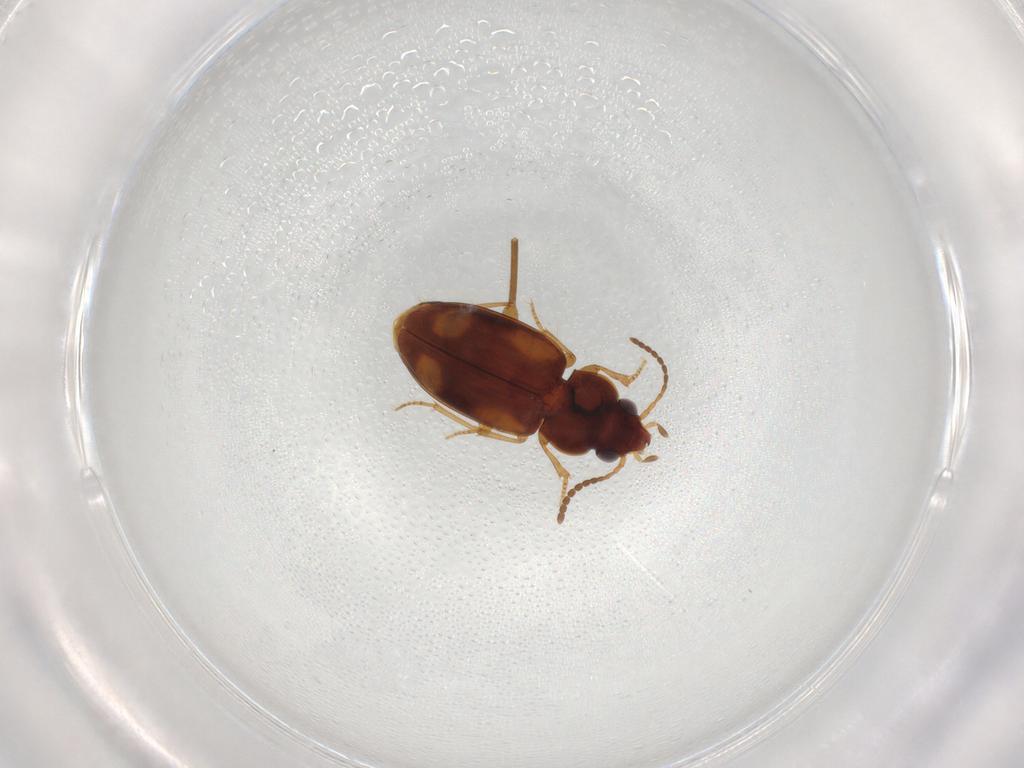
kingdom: Animalia
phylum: Arthropoda
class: Insecta
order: Coleoptera
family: Carabidae
